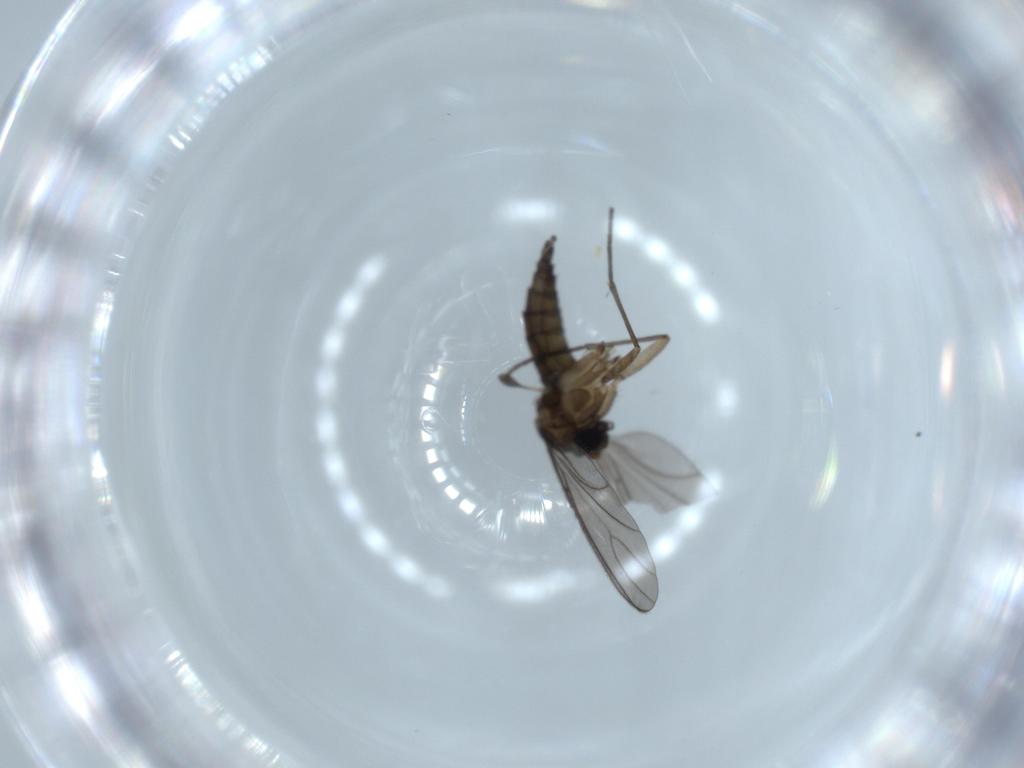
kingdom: Animalia
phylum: Arthropoda
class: Insecta
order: Diptera
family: Sciaridae
